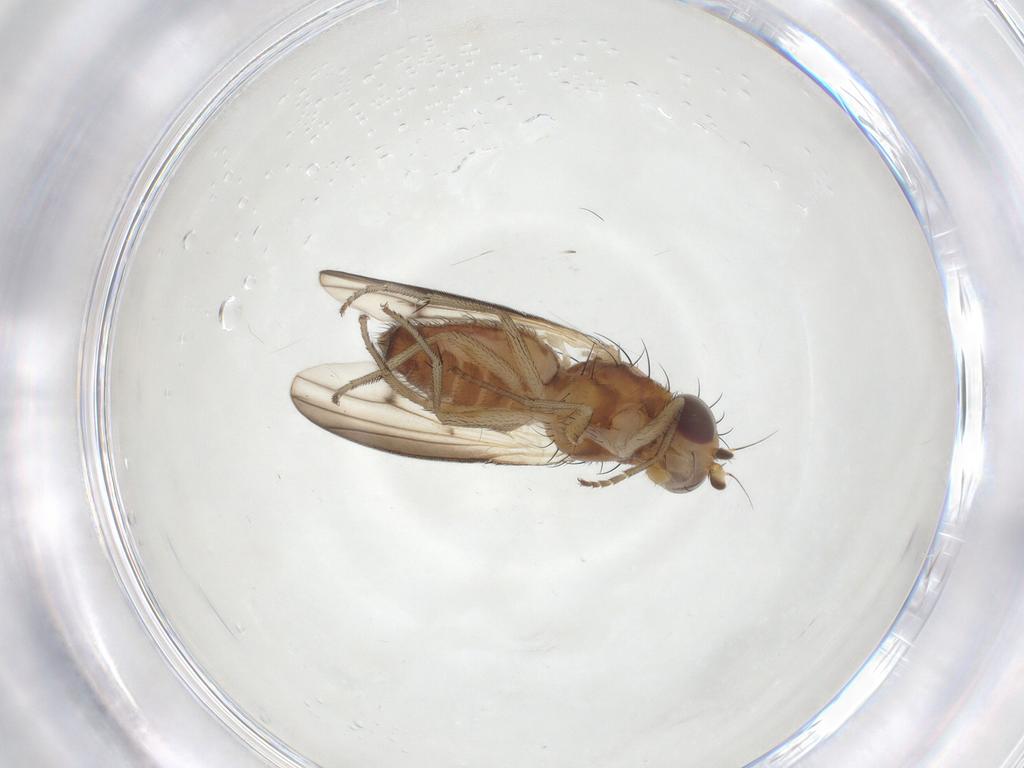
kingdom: Animalia
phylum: Arthropoda
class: Insecta
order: Diptera
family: Heleomyzidae
